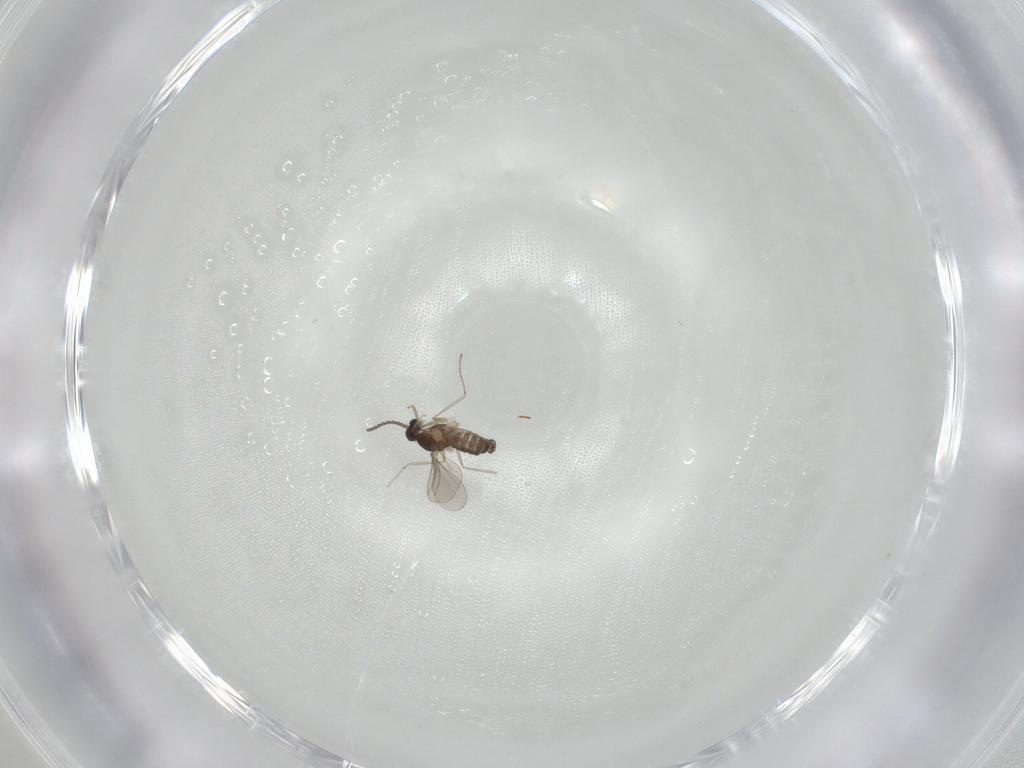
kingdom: Animalia
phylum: Arthropoda
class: Insecta
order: Diptera
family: Cecidomyiidae
